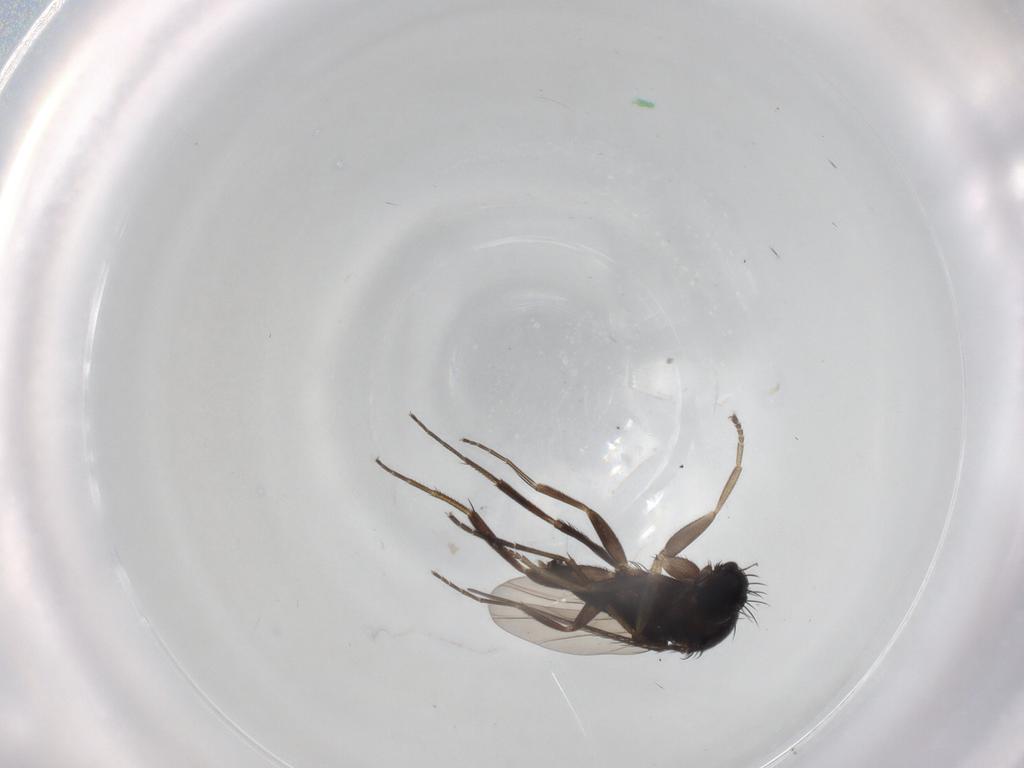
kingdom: Animalia
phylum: Arthropoda
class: Insecta
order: Diptera
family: Phoridae
